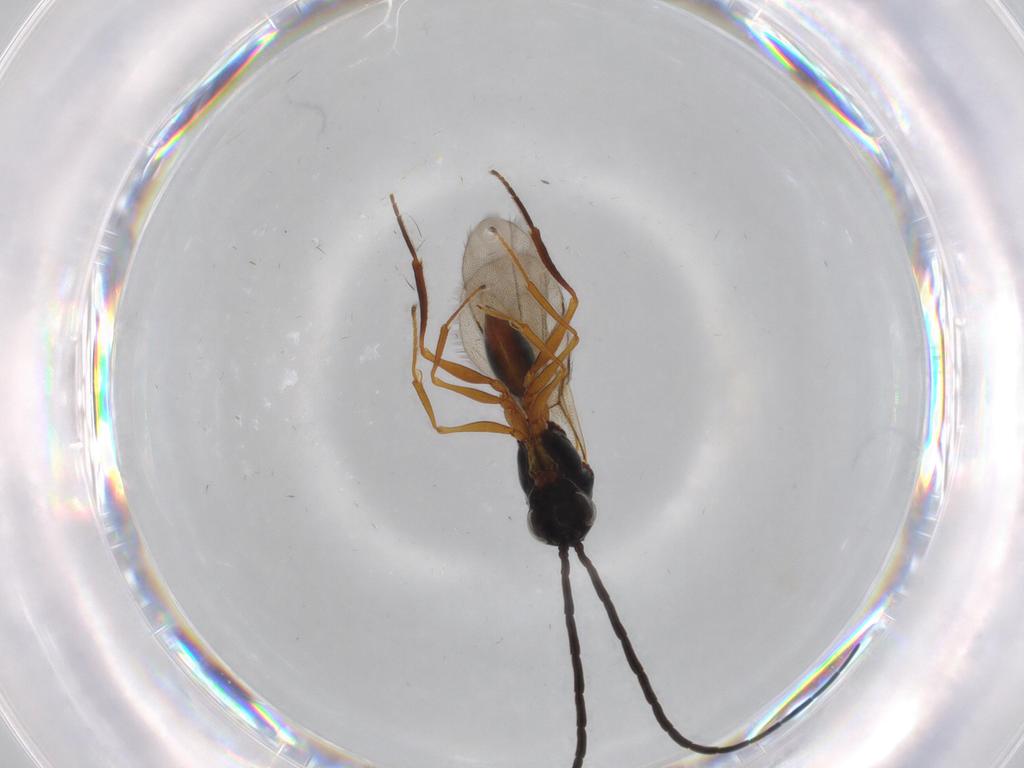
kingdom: Animalia
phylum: Arthropoda
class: Insecta
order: Hymenoptera
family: Figitidae
